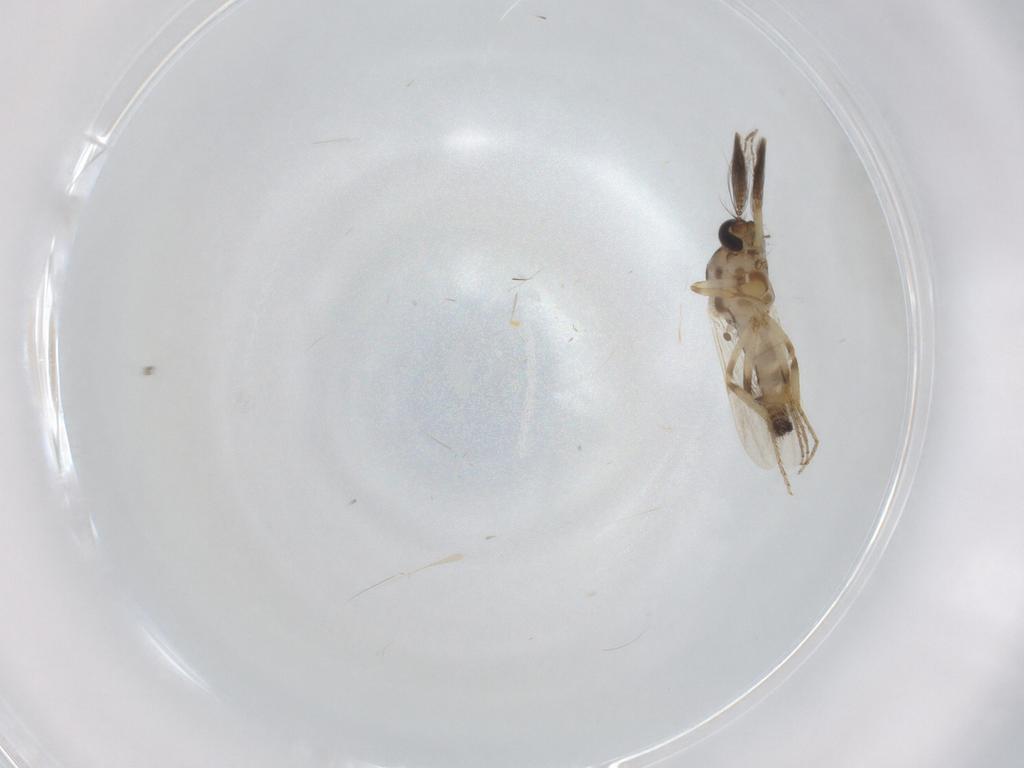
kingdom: Animalia
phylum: Arthropoda
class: Insecta
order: Diptera
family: Ceratopogonidae
